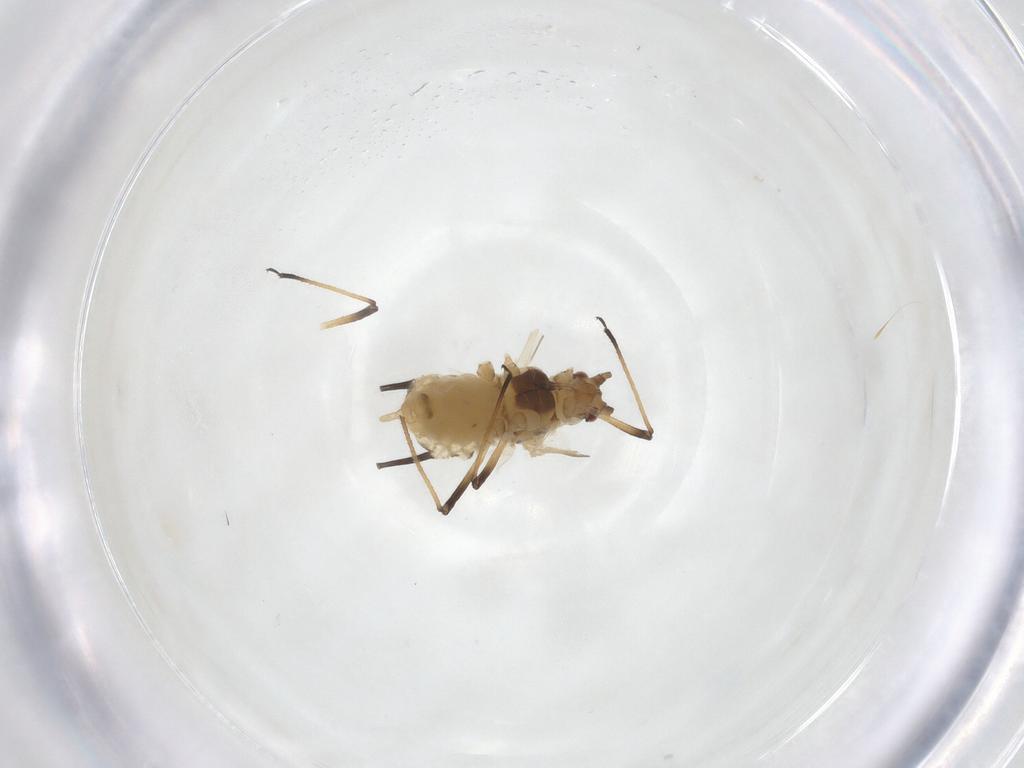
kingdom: Animalia
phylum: Arthropoda
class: Insecta
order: Hemiptera
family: Aphididae
